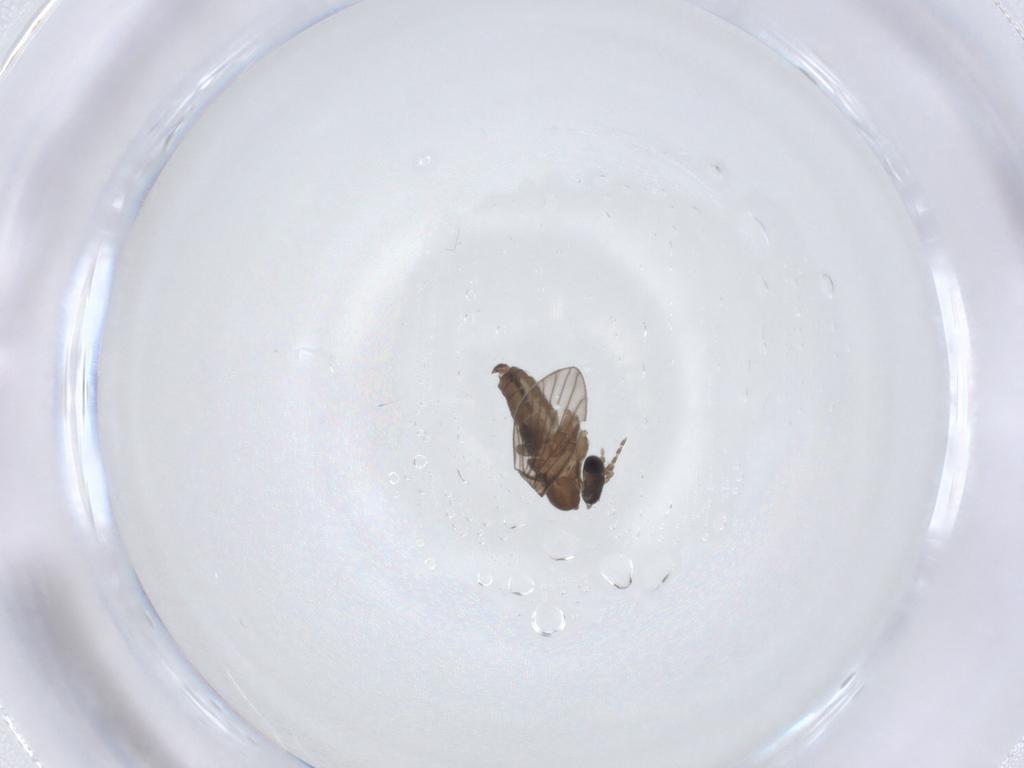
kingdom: Animalia
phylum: Arthropoda
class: Insecta
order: Diptera
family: Psychodidae
